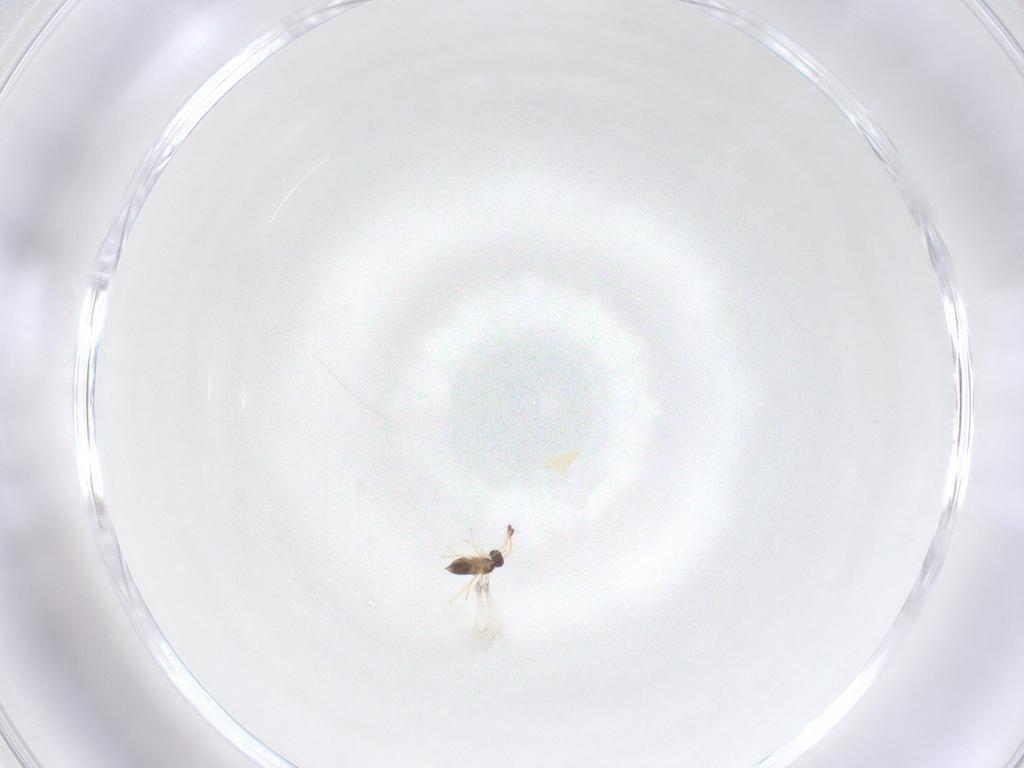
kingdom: Animalia
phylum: Arthropoda
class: Insecta
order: Hymenoptera
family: Mymaridae
